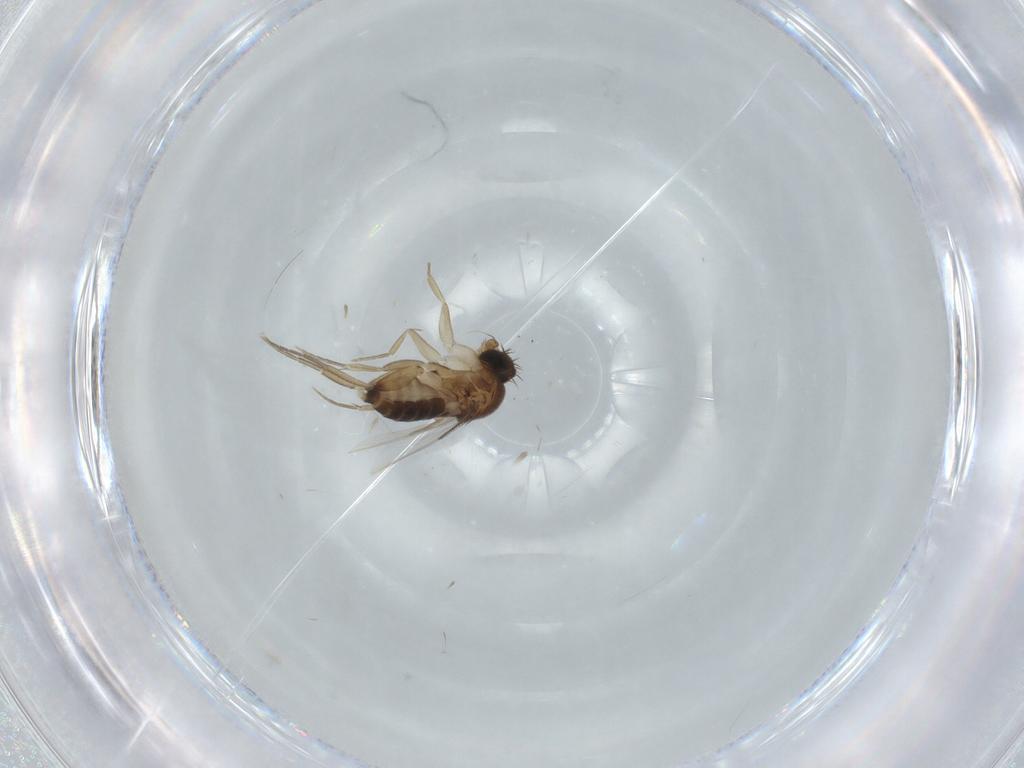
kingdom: Animalia
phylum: Arthropoda
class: Insecta
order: Diptera
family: Phoridae
